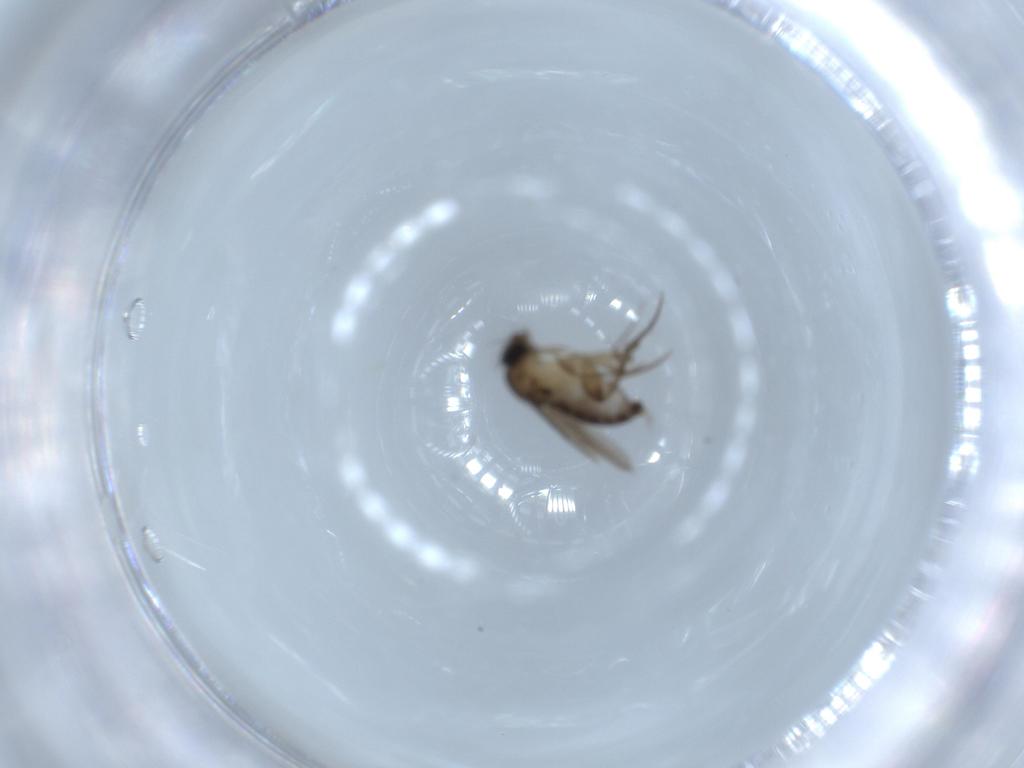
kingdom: Animalia
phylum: Arthropoda
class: Insecta
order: Diptera
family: Phoridae
